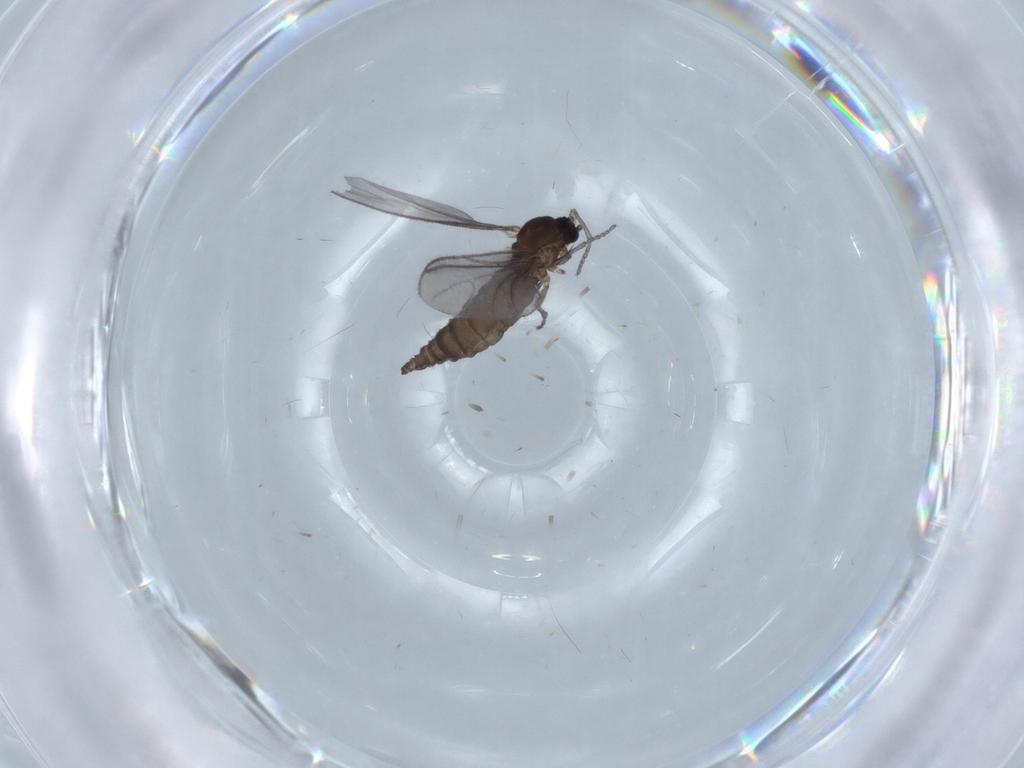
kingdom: Animalia
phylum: Arthropoda
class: Insecta
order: Diptera
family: Sciaridae
